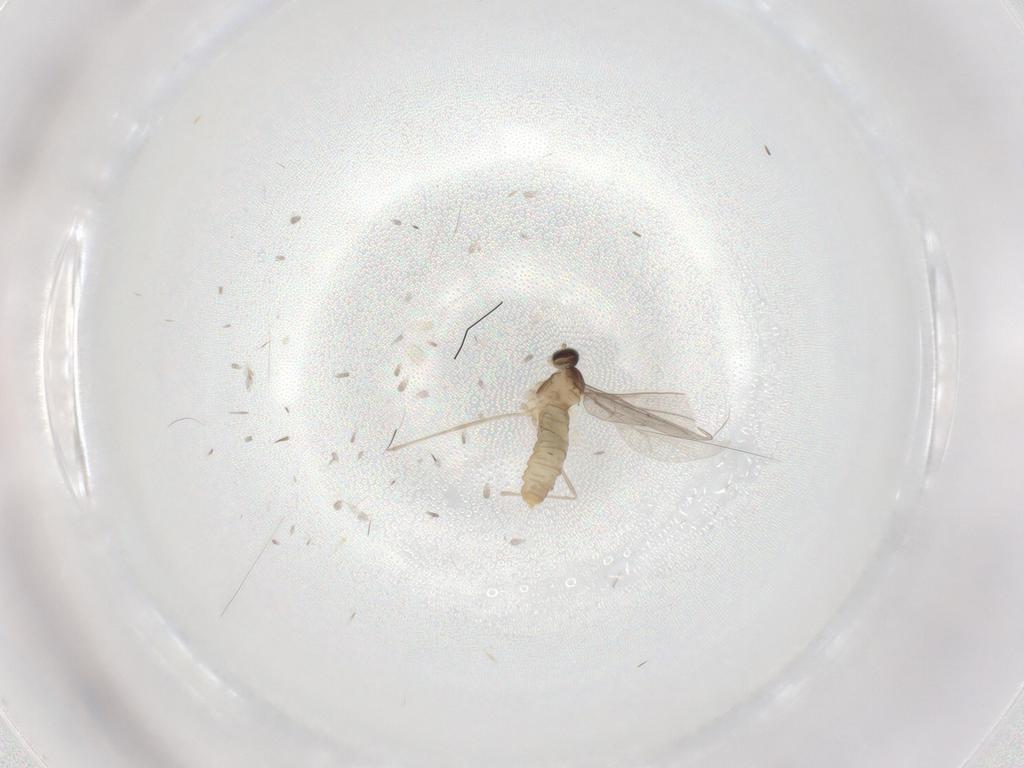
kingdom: Animalia
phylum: Arthropoda
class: Insecta
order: Diptera
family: Cecidomyiidae
